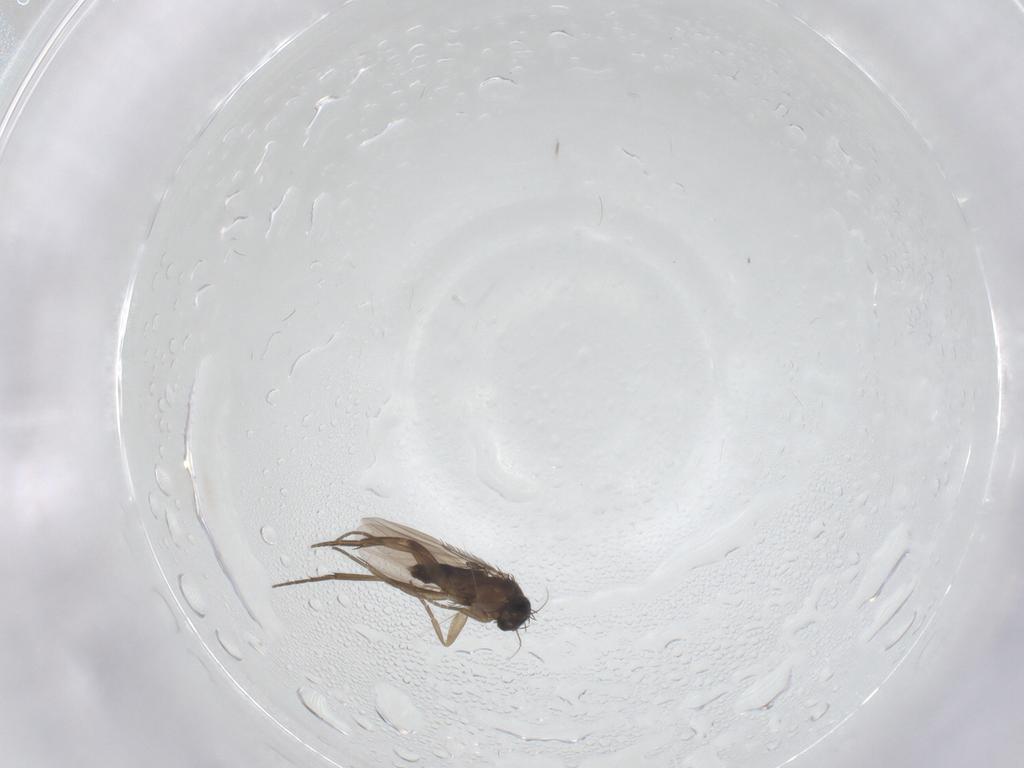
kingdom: Animalia
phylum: Arthropoda
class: Insecta
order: Diptera
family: Phoridae
